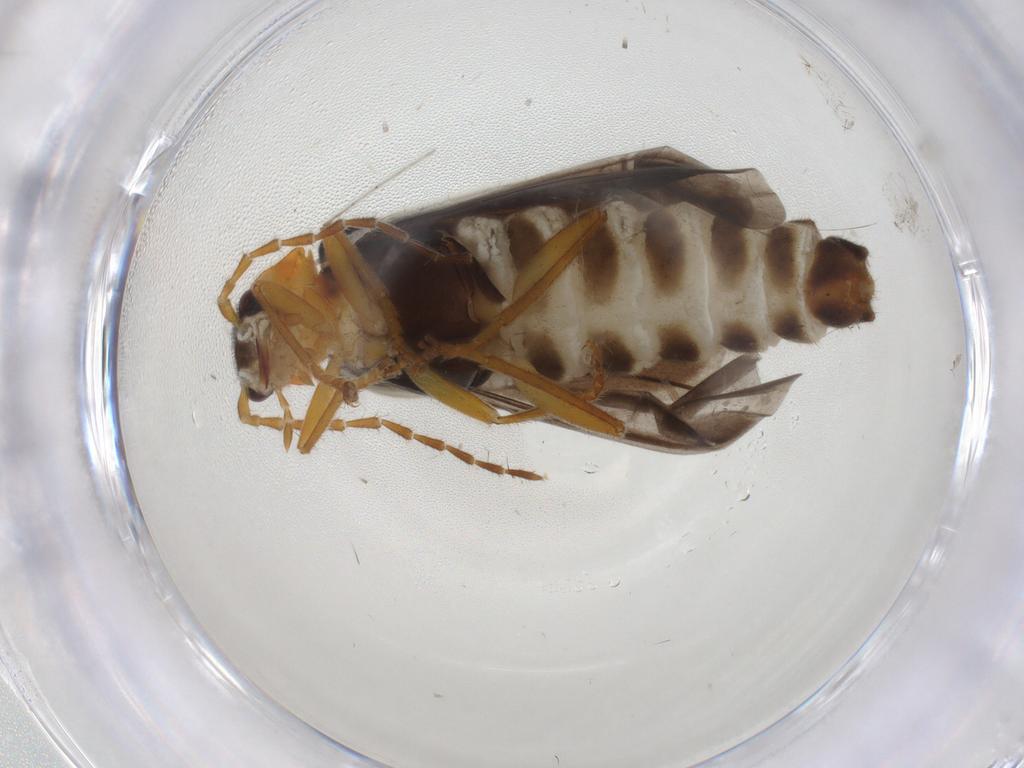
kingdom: Animalia
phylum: Arthropoda
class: Insecta
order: Coleoptera
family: Cantharidae
